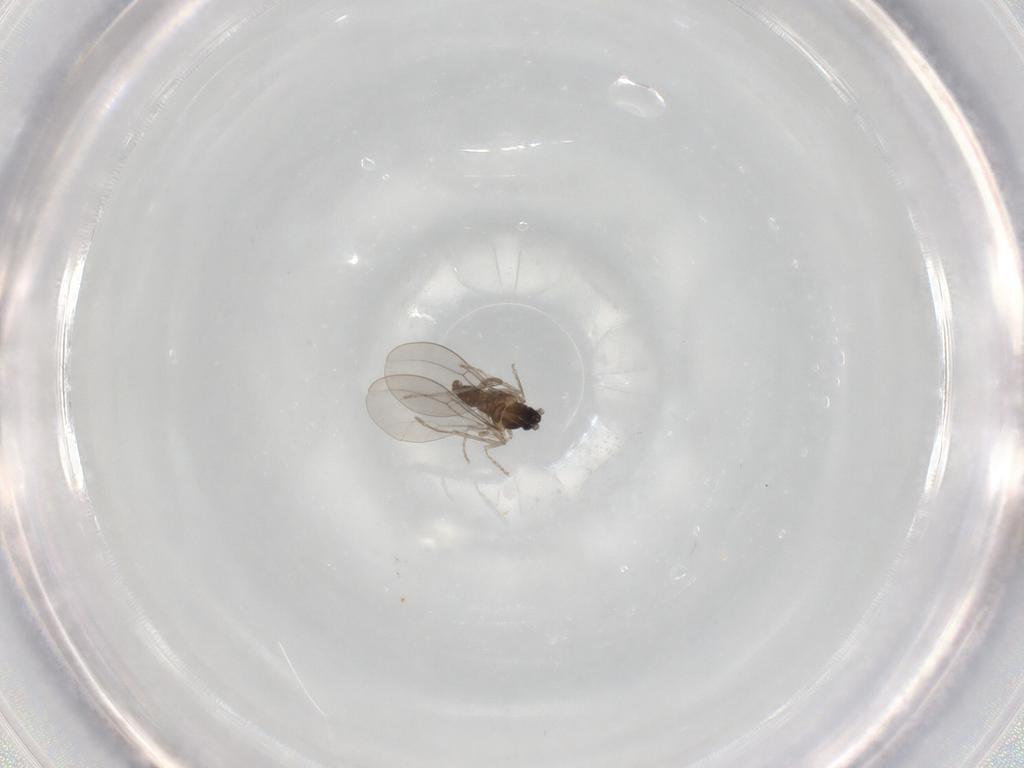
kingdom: Animalia
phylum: Arthropoda
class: Insecta
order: Diptera
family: Cecidomyiidae
